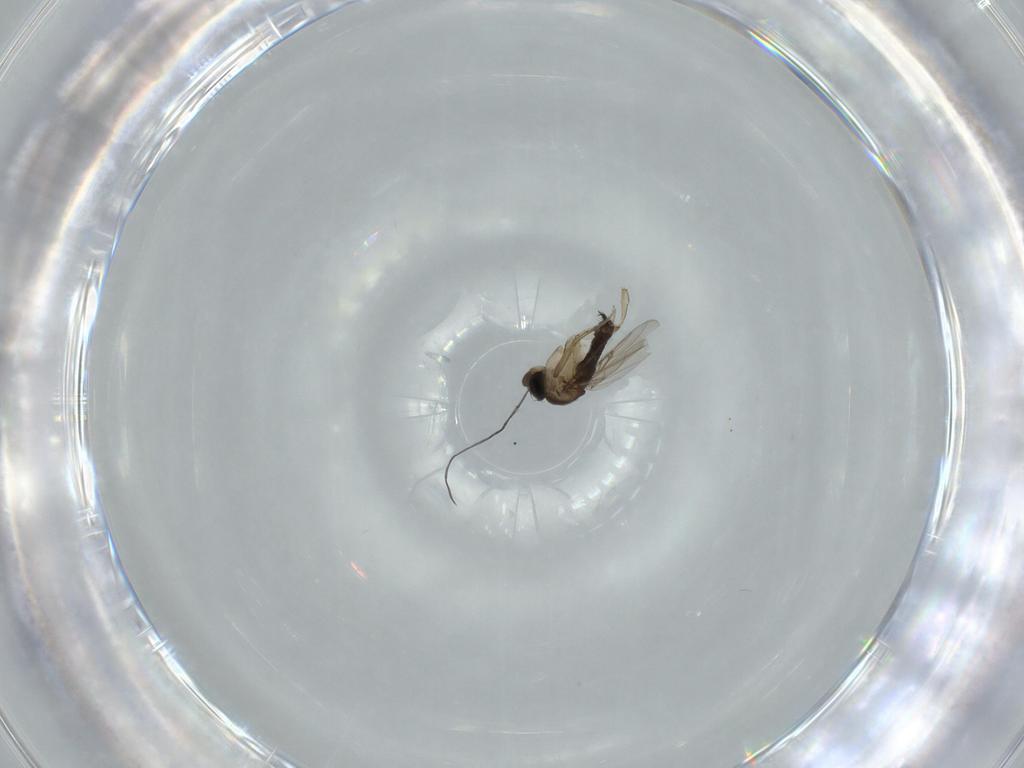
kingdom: Animalia
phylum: Arthropoda
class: Insecta
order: Diptera
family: Phoridae
